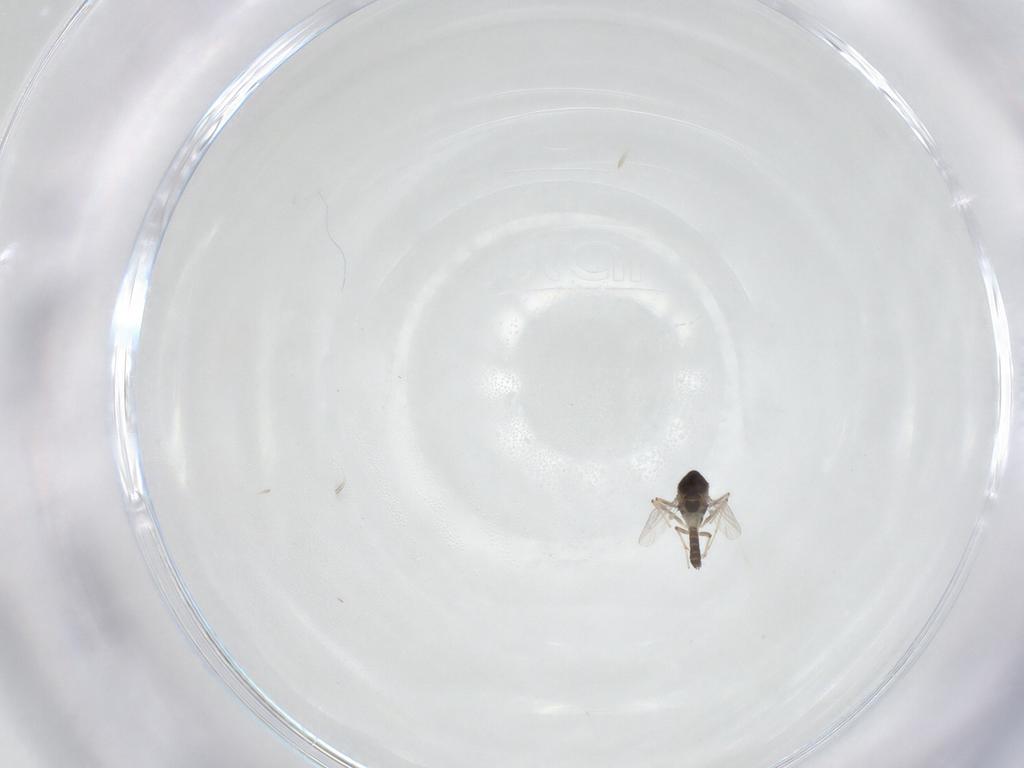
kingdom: Animalia
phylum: Arthropoda
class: Insecta
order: Diptera
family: Chironomidae
